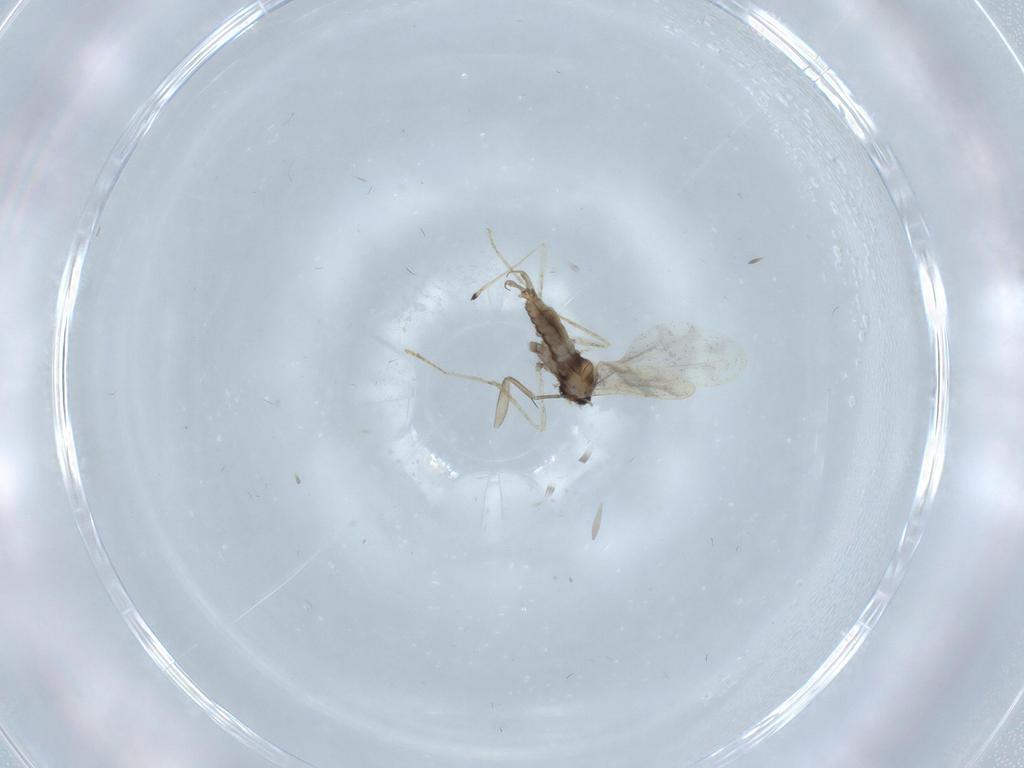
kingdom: Animalia
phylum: Arthropoda
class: Insecta
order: Diptera
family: Cecidomyiidae
